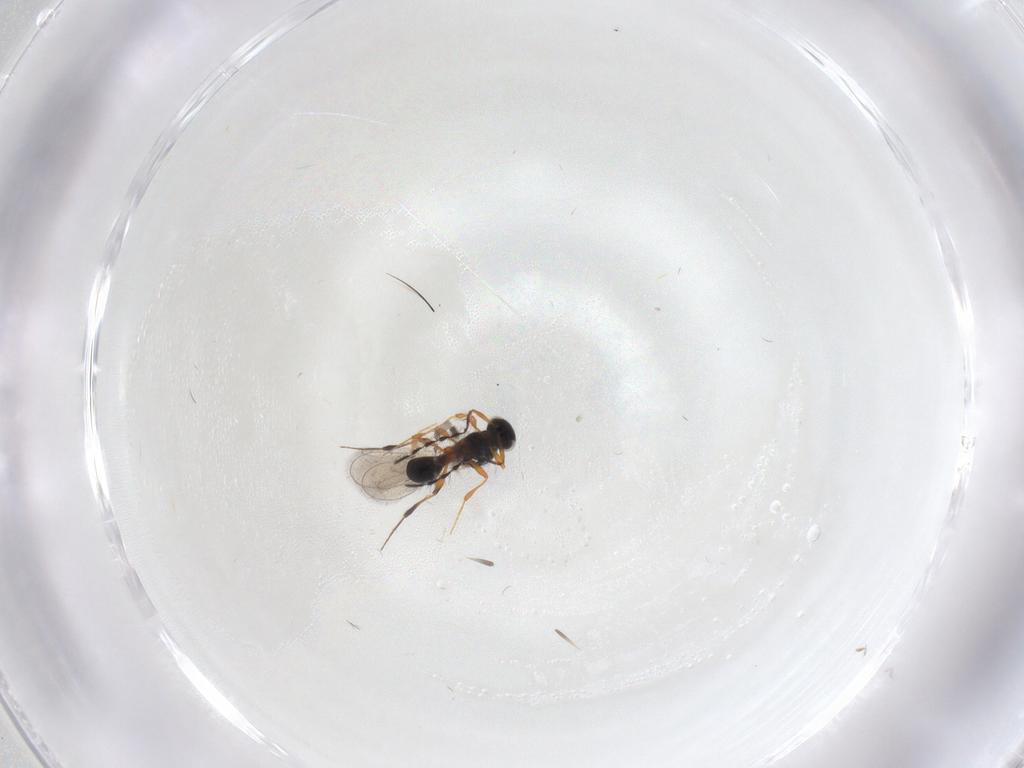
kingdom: Animalia
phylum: Arthropoda
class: Insecta
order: Hymenoptera
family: Platygastridae
